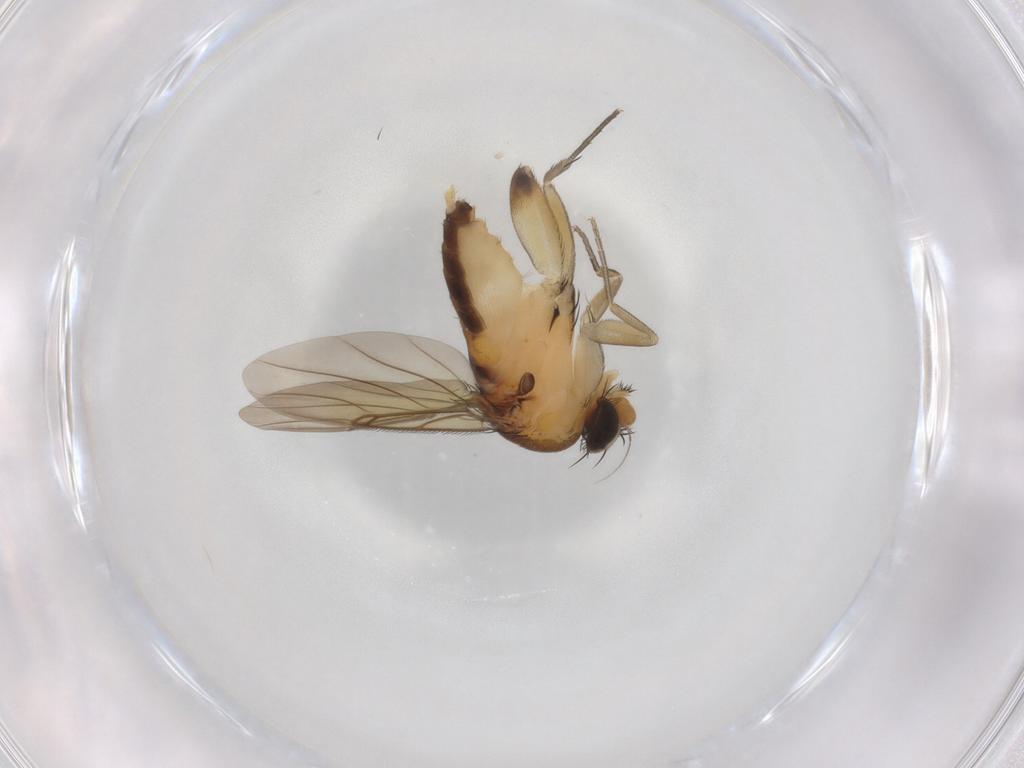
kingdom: Animalia
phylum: Arthropoda
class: Insecta
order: Diptera
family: Phoridae
